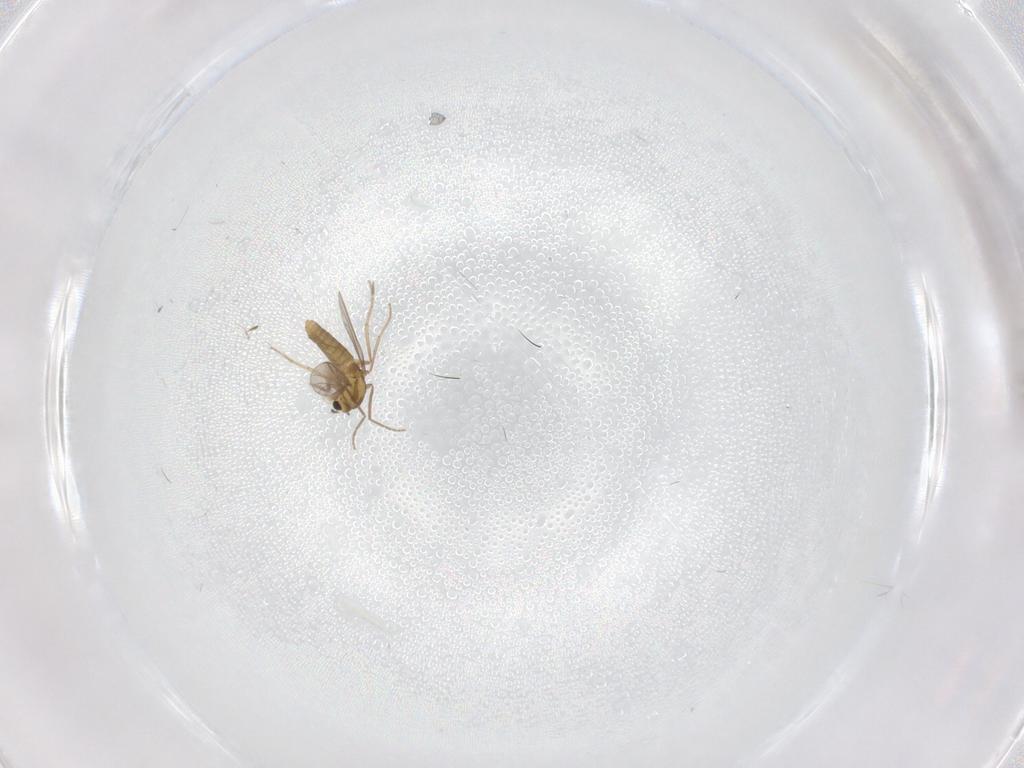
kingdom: Animalia
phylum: Arthropoda
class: Insecta
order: Diptera
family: Chironomidae
